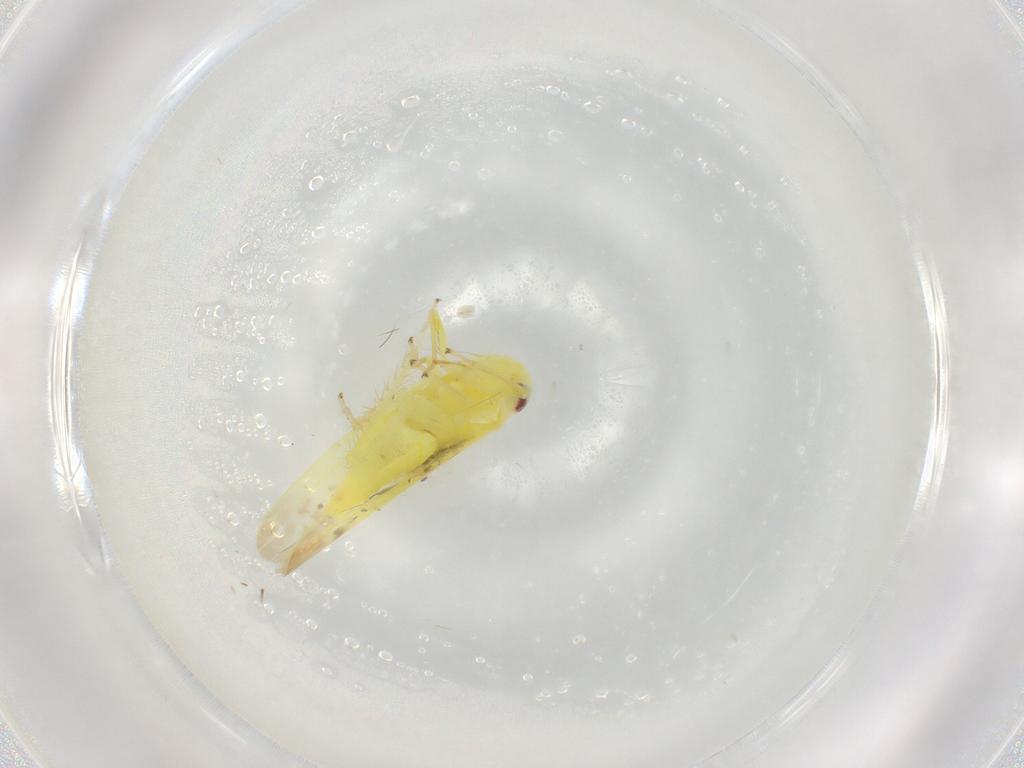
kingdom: Animalia
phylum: Arthropoda
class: Insecta
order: Hemiptera
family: Cicadellidae
